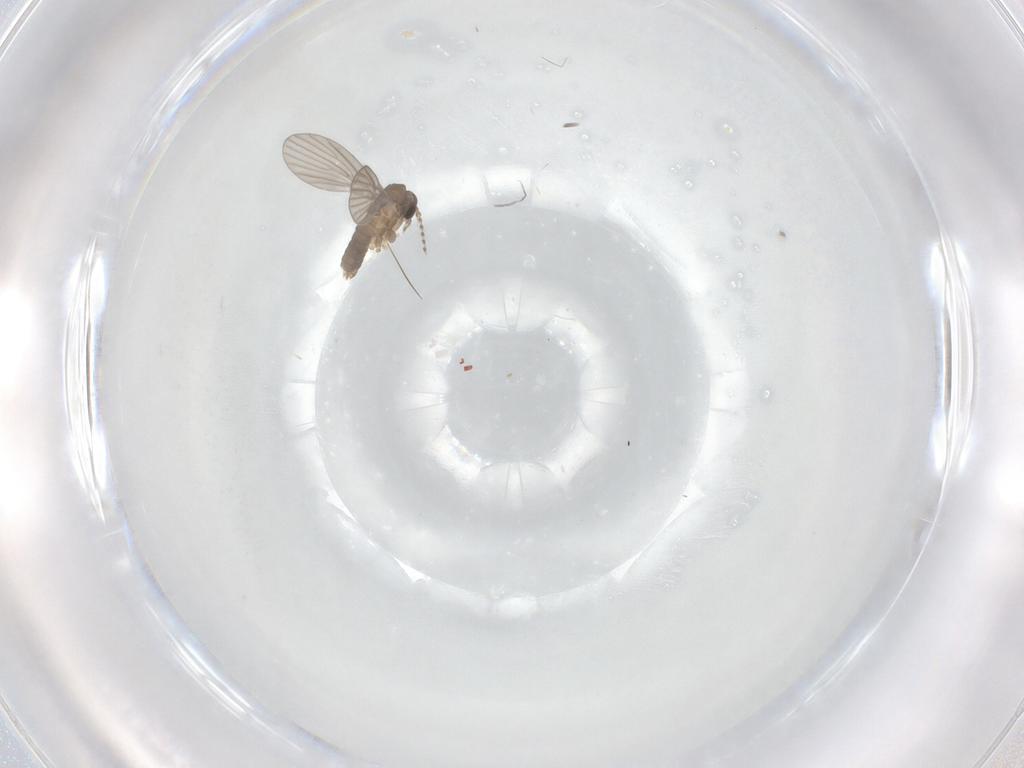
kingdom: Animalia
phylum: Arthropoda
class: Insecta
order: Diptera
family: Psychodidae
